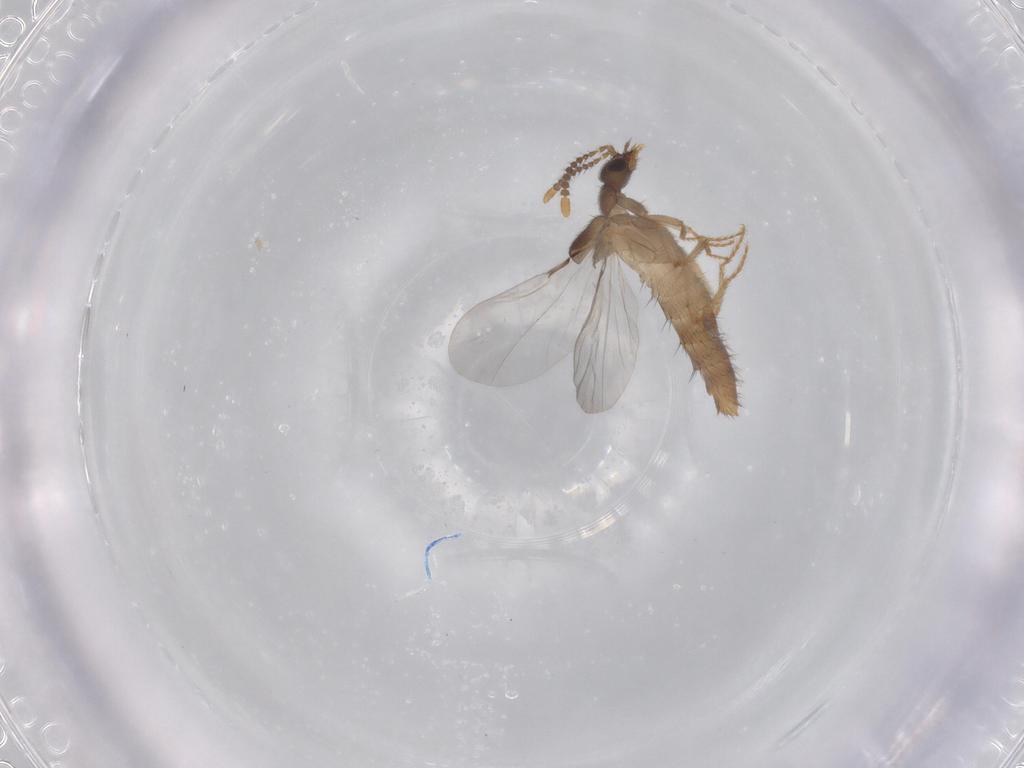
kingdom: Animalia
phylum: Arthropoda
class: Insecta
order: Coleoptera
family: Staphylinidae
